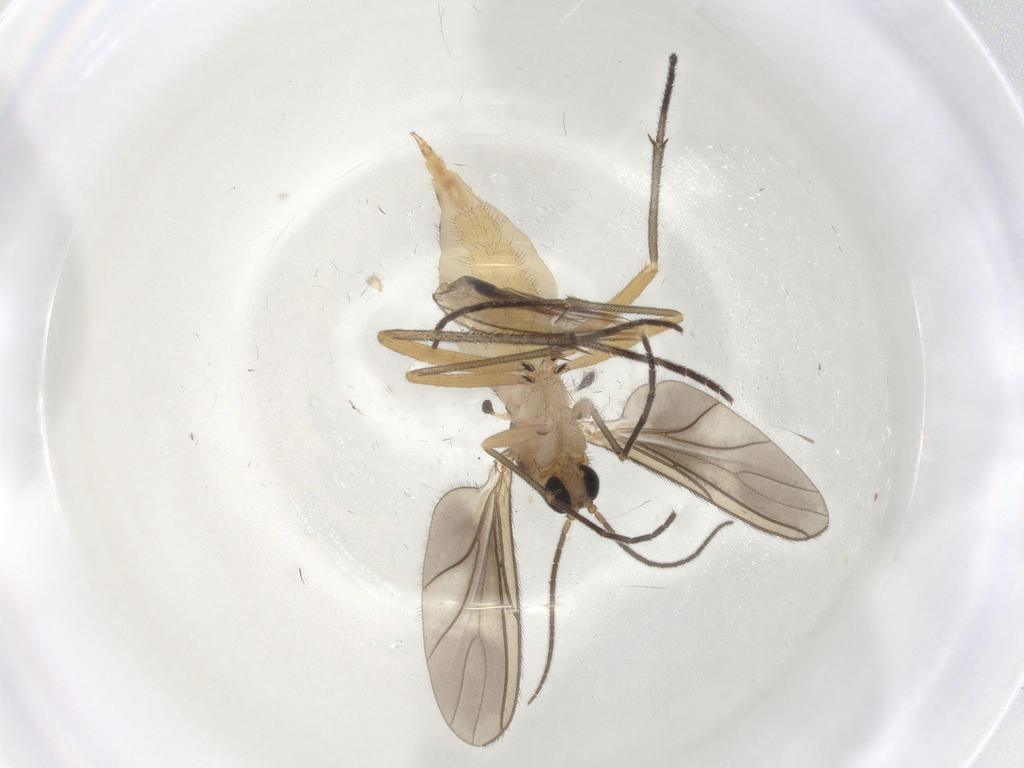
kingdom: Animalia
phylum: Arthropoda
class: Insecta
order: Diptera
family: Sciaridae
